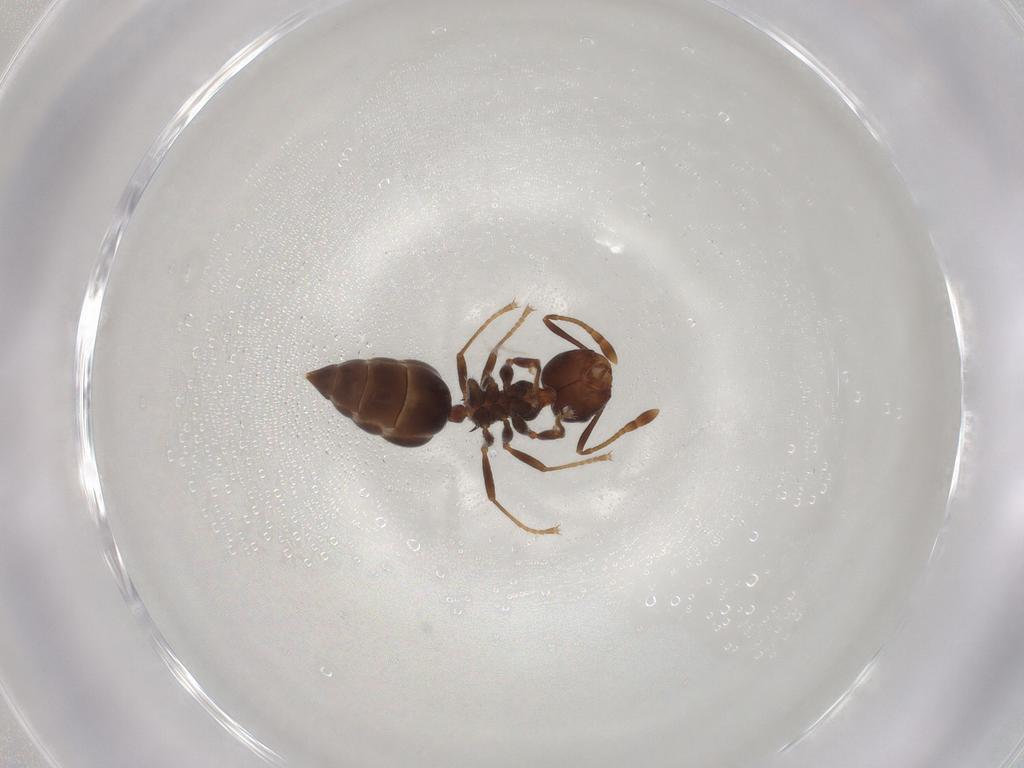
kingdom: Animalia
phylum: Arthropoda
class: Insecta
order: Hymenoptera
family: Formicidae
